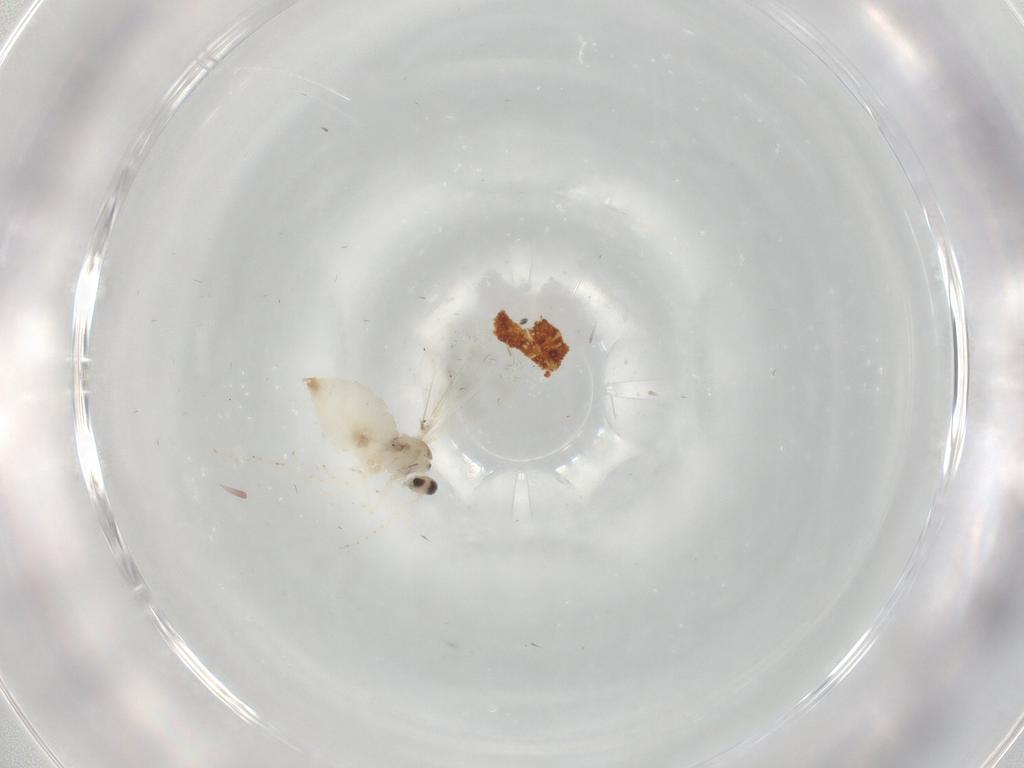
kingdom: Animalia
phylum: Arthropoda
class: Insecta
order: Diptera
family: Cecidomyiidae
